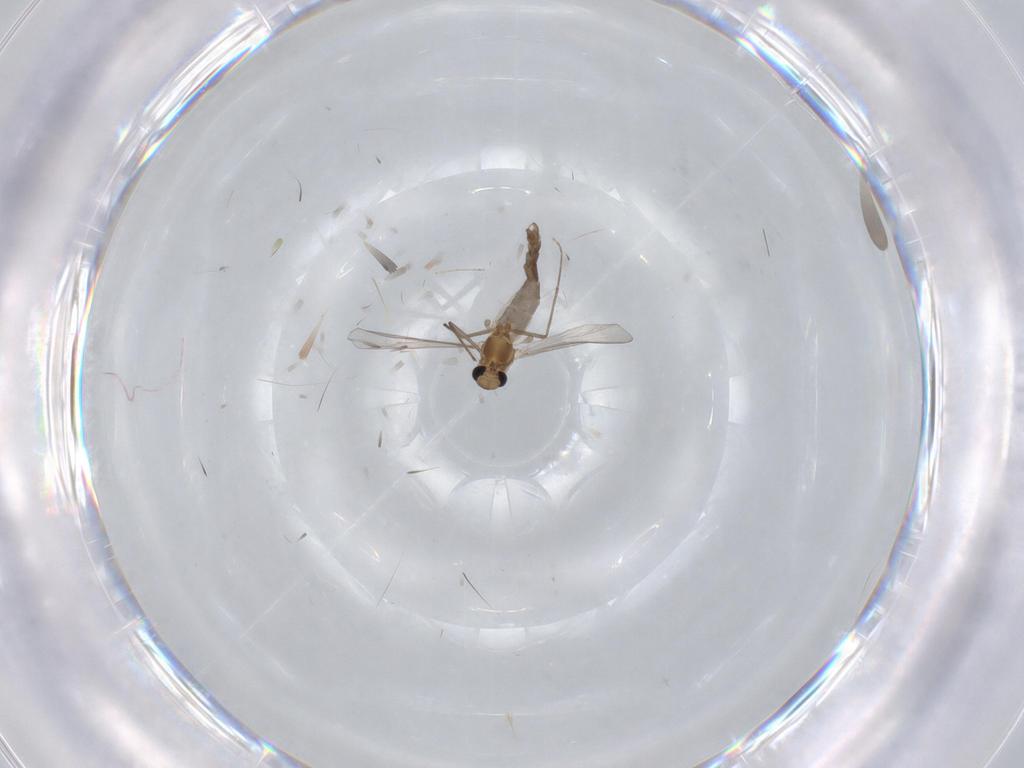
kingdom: Animalia
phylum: Arthropoda
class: Insecta
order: Diptera
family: Chironomidae
